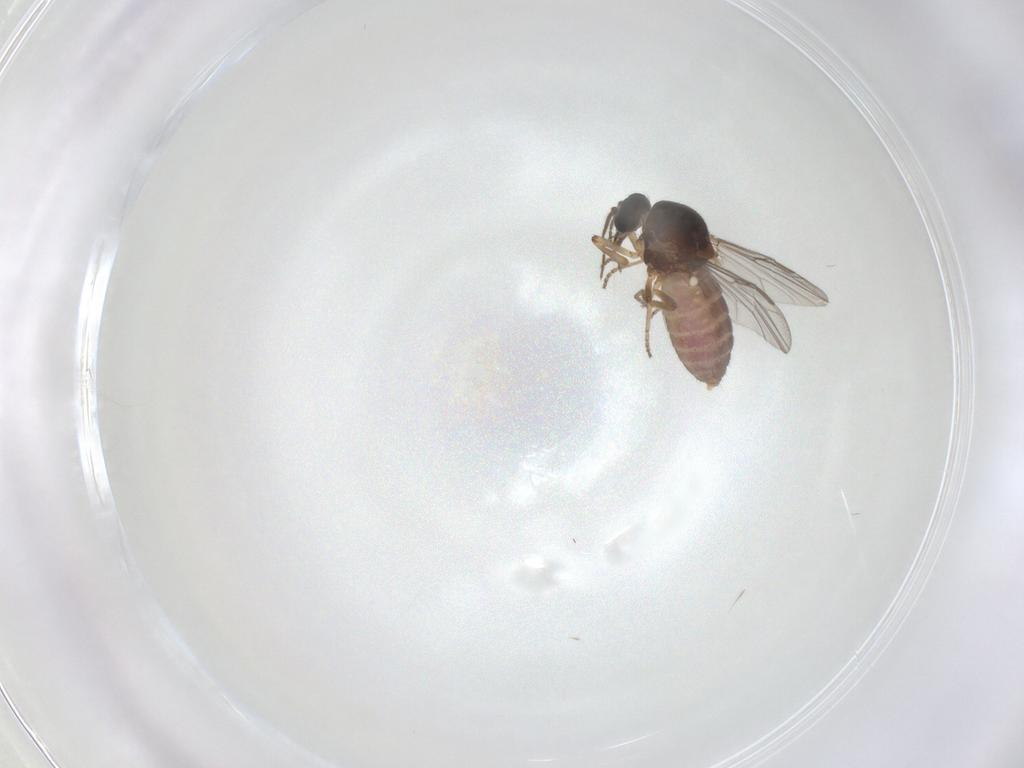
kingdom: Animalia
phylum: Arthropoda
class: Insecta
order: Diptera
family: Ceratopogonidae
